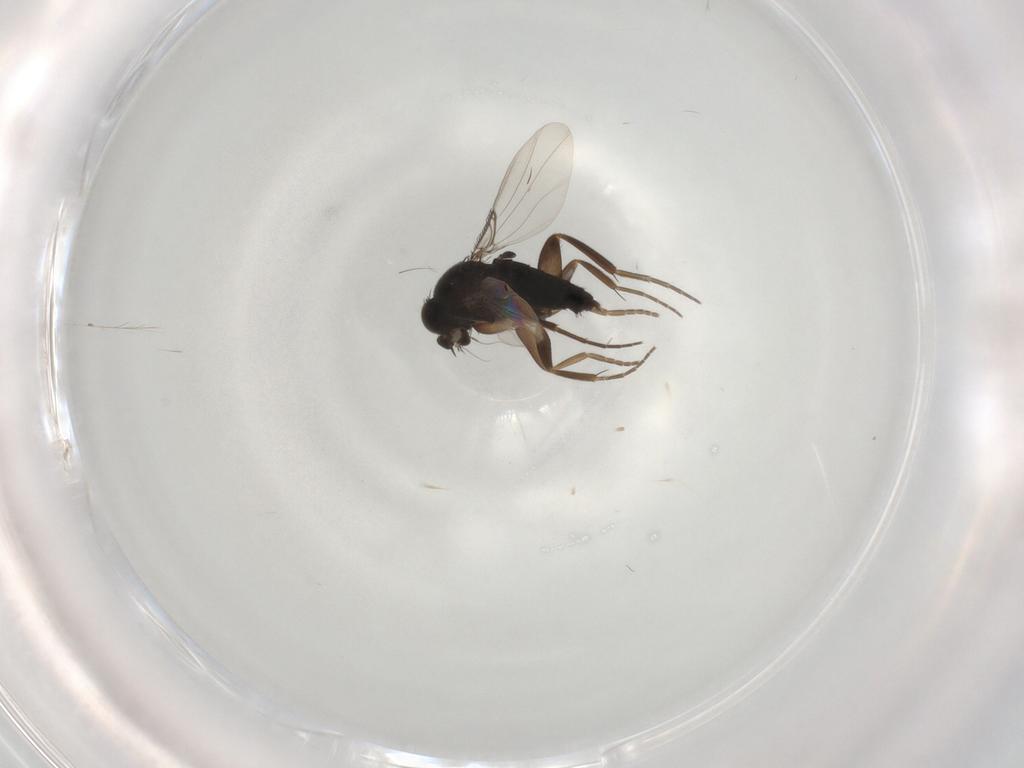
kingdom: Animalia
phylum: Arthropoda
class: Insecta
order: Diptera
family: Phoridae
